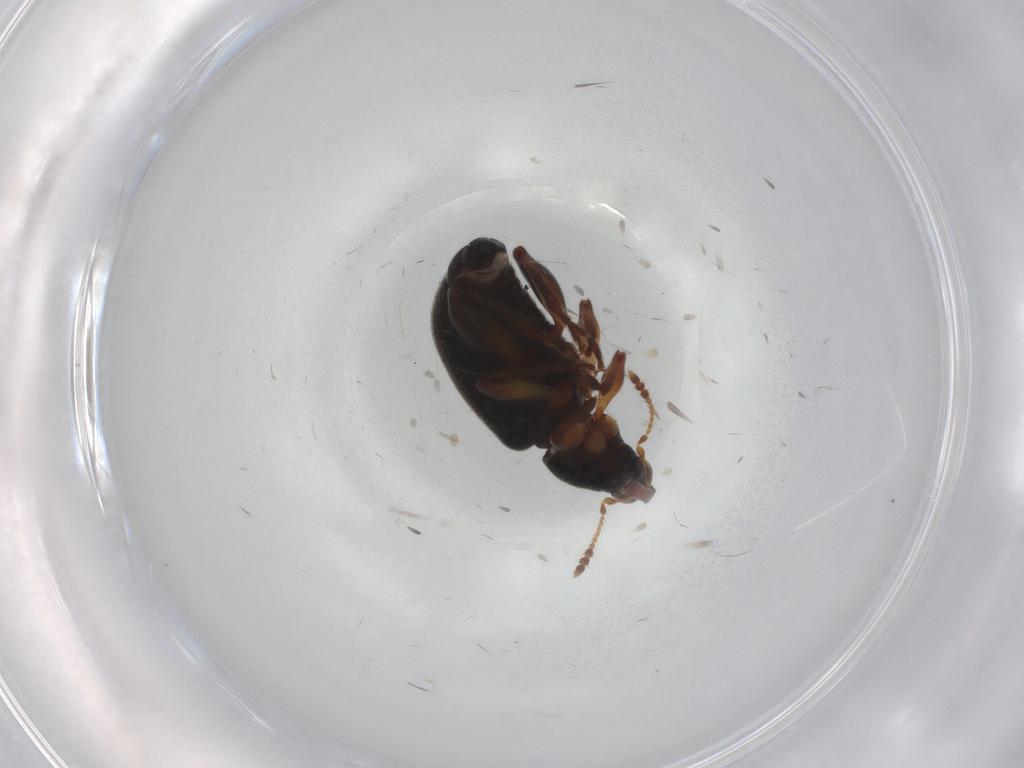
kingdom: Animalia
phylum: Arthropoda
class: Insecta
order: Coleoptera
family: Curculionidae
